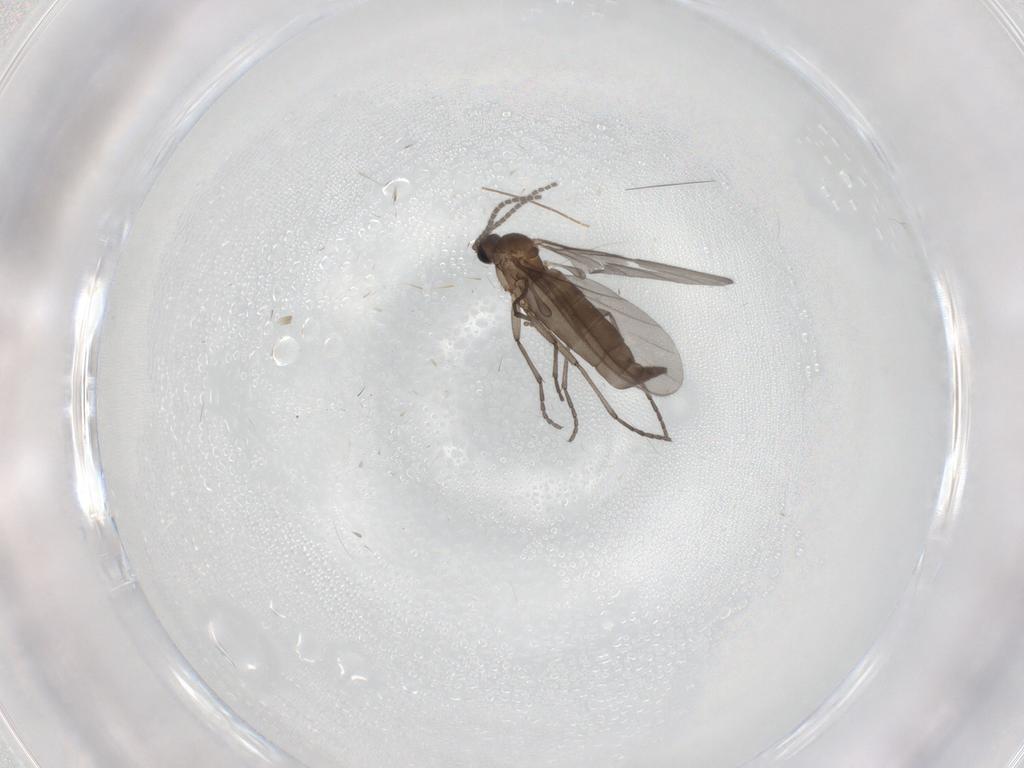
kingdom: Animalia
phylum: Arthropoda
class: Insecta
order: Diptera
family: Sciaridae
